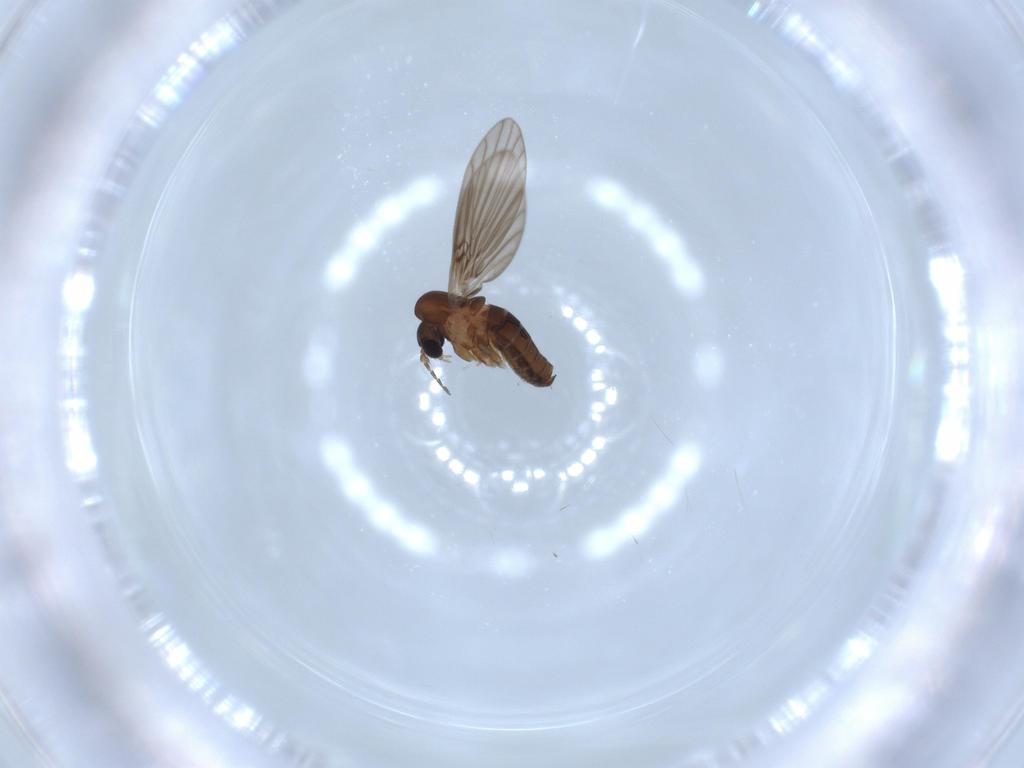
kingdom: Animalia
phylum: Arthropoda
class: Insecta
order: Diptera
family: Psychodidae
